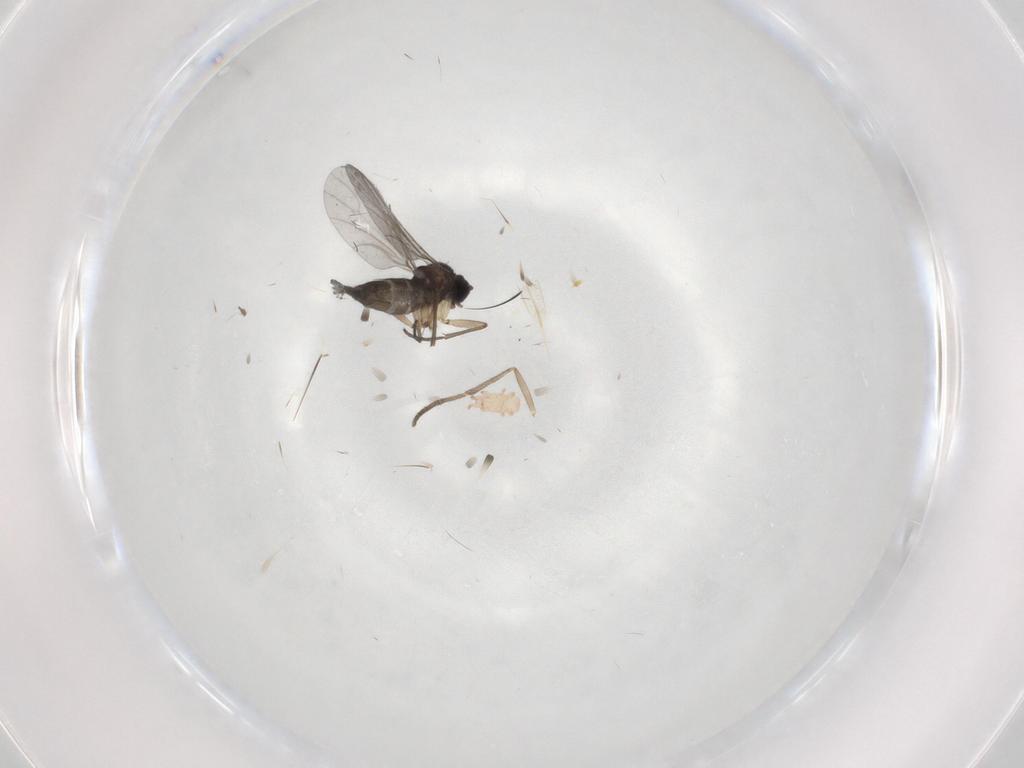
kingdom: Animalia
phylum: Arthropoda
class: Insecta
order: Diptera
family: Sciaridae
